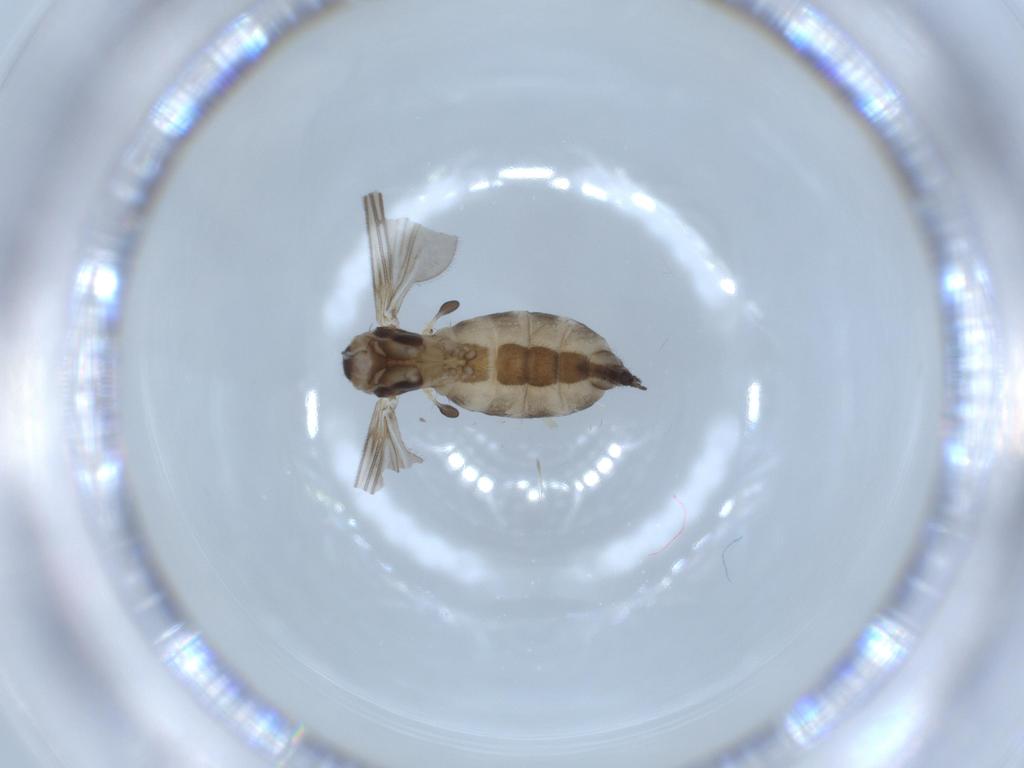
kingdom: Animalia
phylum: Arthropoda
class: Insecta
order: Diptera
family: Sciaridae
